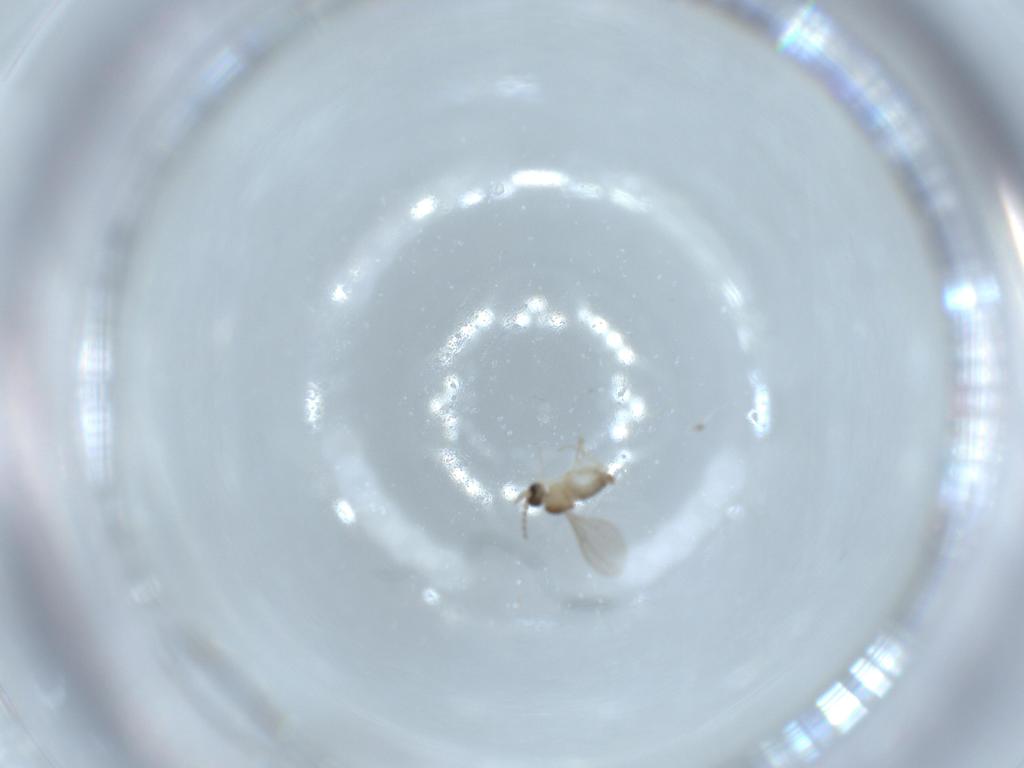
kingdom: Animalia
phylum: Arthropoda
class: Insecta
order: Diptera
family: Cecidomyiidae
